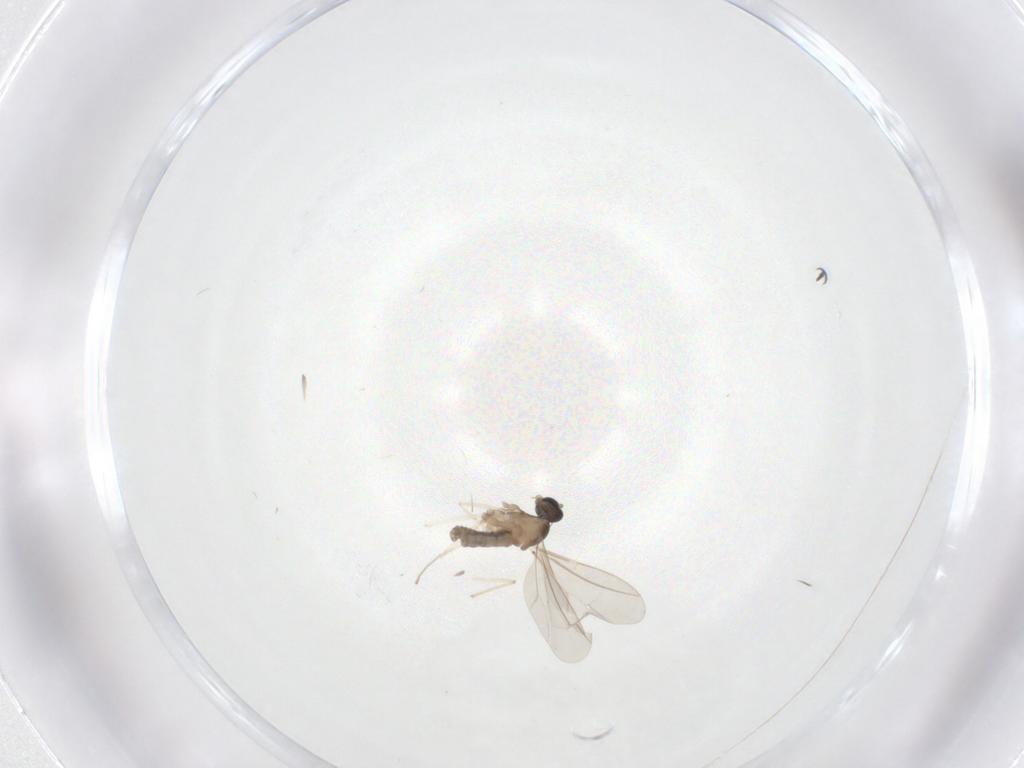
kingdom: Animalia
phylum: Arthropoda
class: Insecta
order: Diptera
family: Cecidomyiidae
